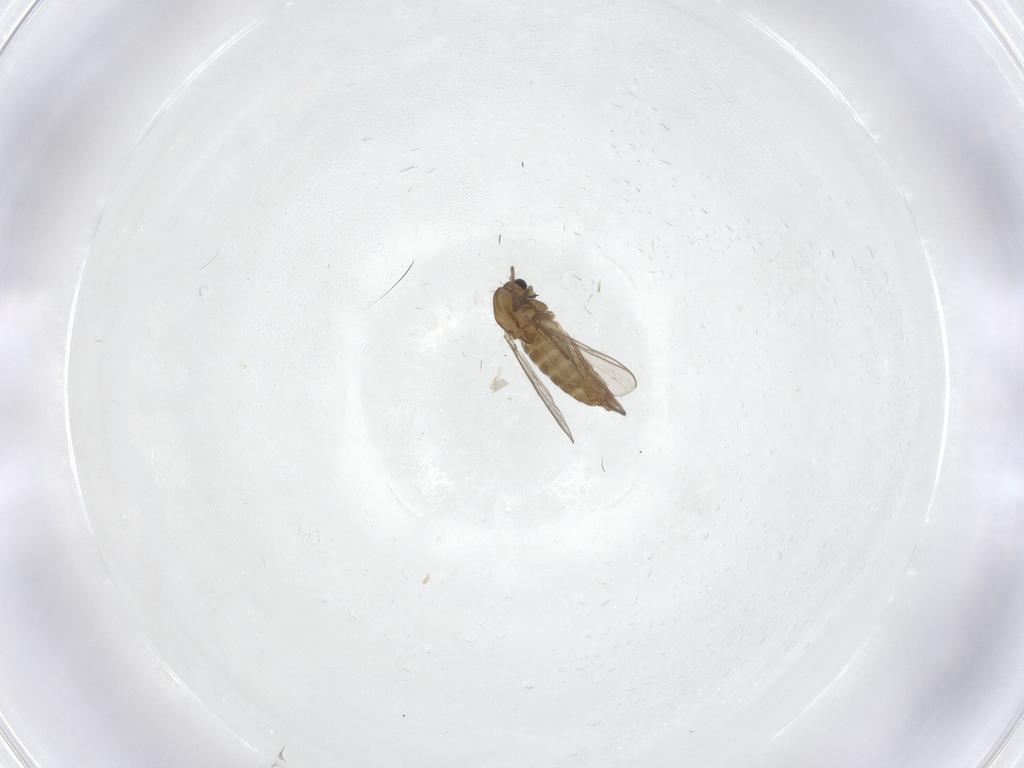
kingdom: Animalia
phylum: Arthropoda
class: Insecta
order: Diptera
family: Chironomidae
